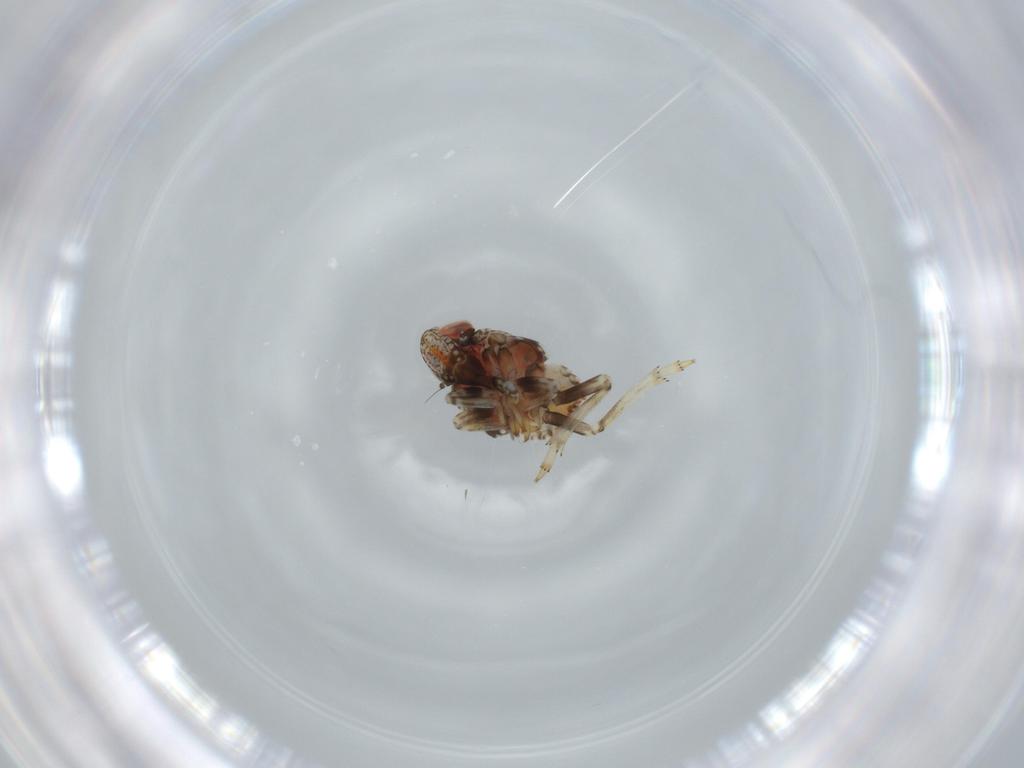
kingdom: Animalia
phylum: Arthropoda
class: Insecta
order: Hemiptera
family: Issidae
